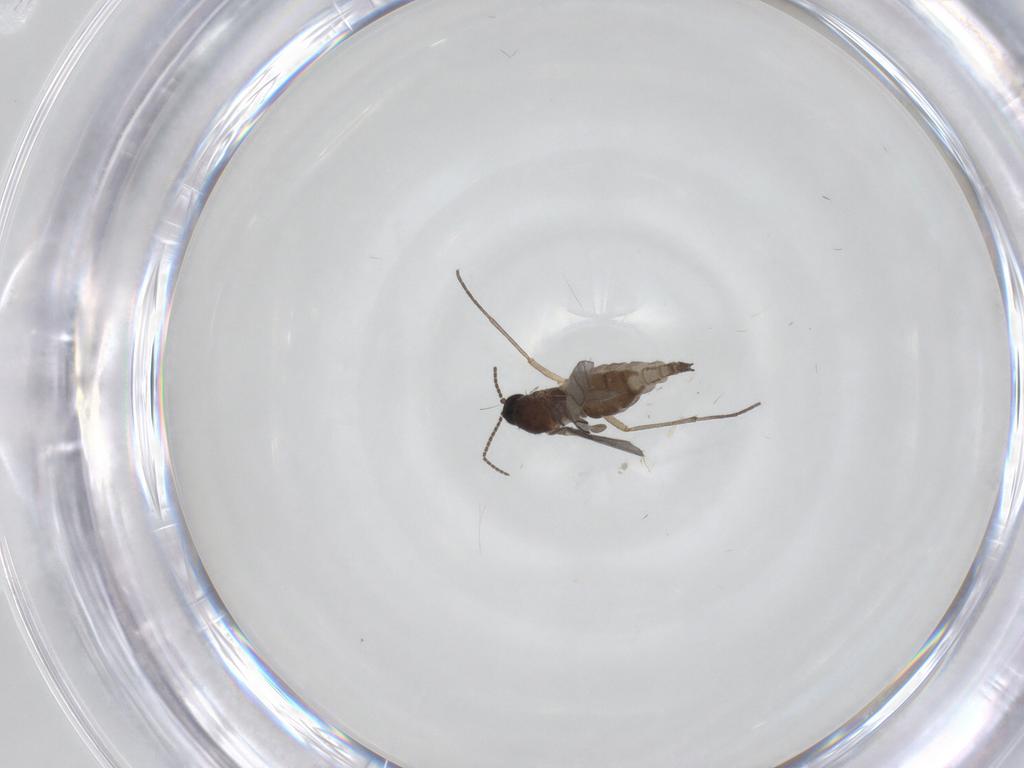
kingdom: Animalia
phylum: Arthropoda
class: Insecta
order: Diptera
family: Sciaridae
